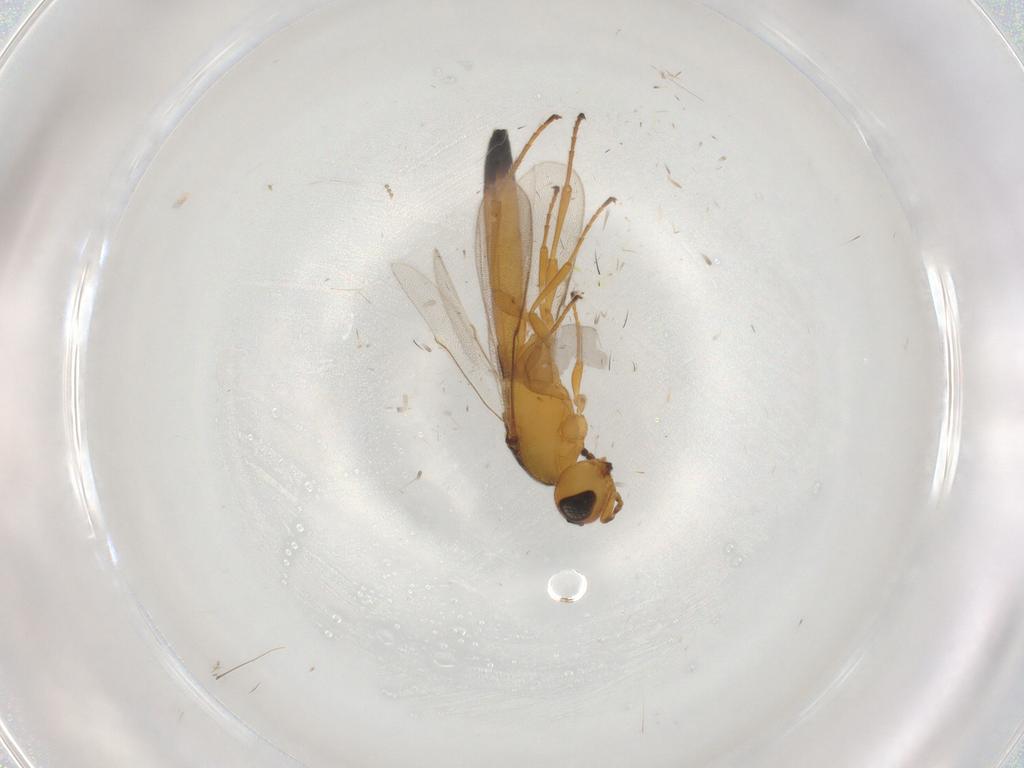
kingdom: Animalia
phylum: Arthropoda
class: Insecta
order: Hymenoptera
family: Scelionidae
